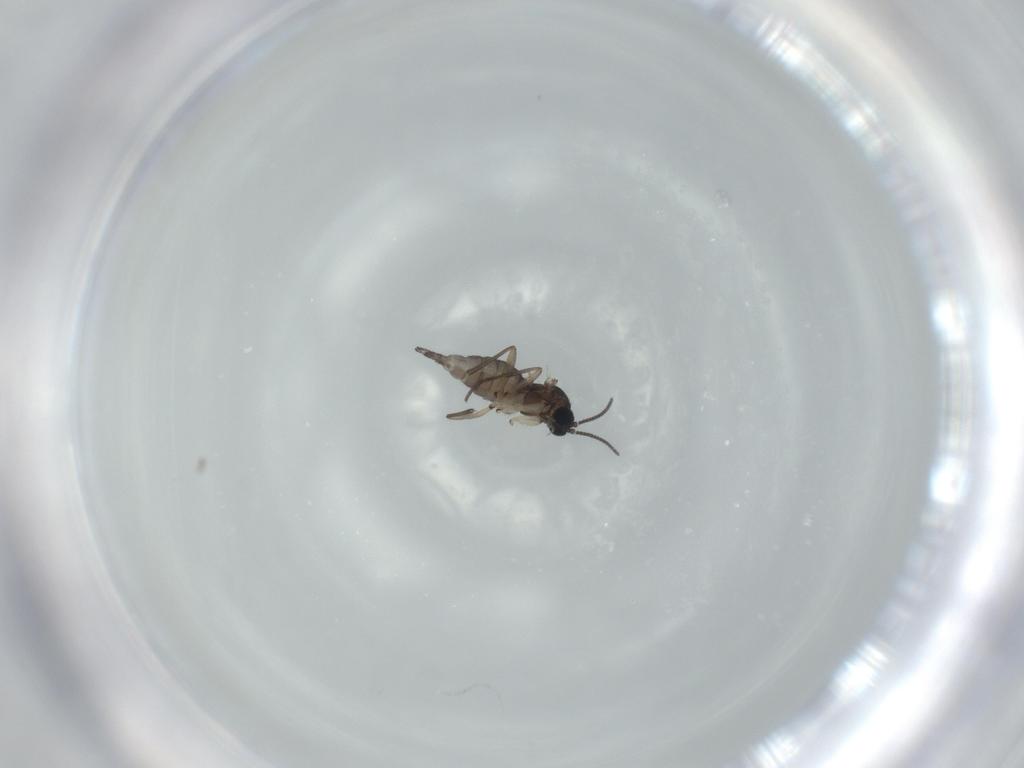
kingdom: Animalia
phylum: Arthropoda
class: Insecta
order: Diptera
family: Sciaridae
